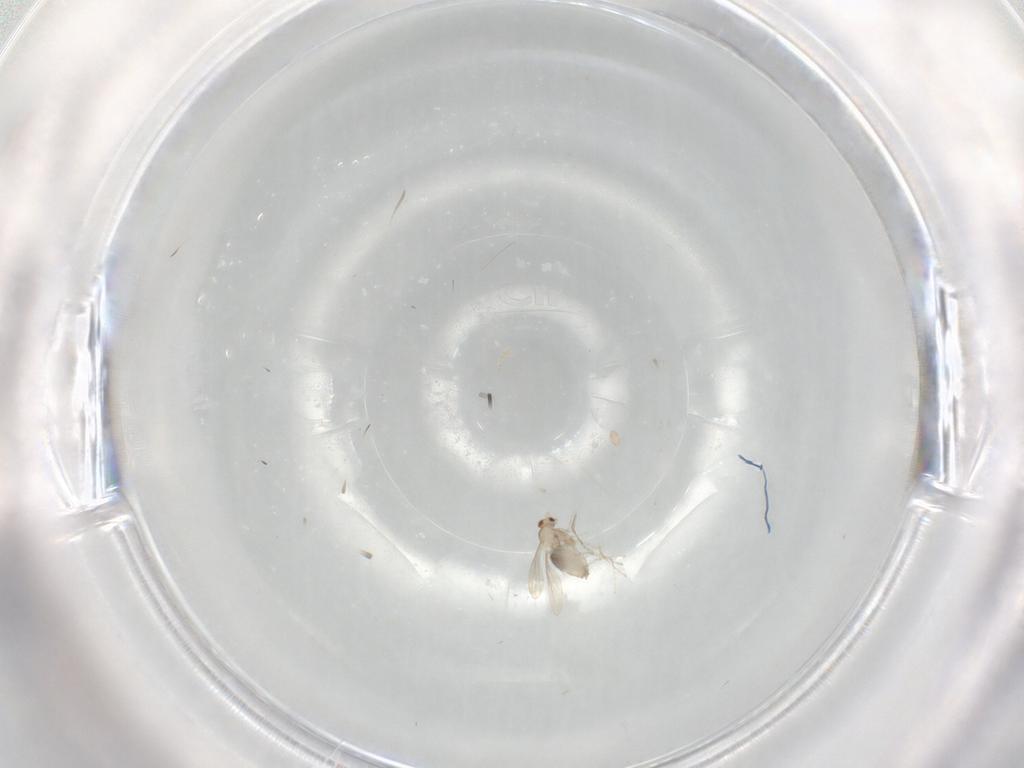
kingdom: Animalia
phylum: Arthropoda
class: Insecta
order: Diptera
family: Cecidomyiidae
